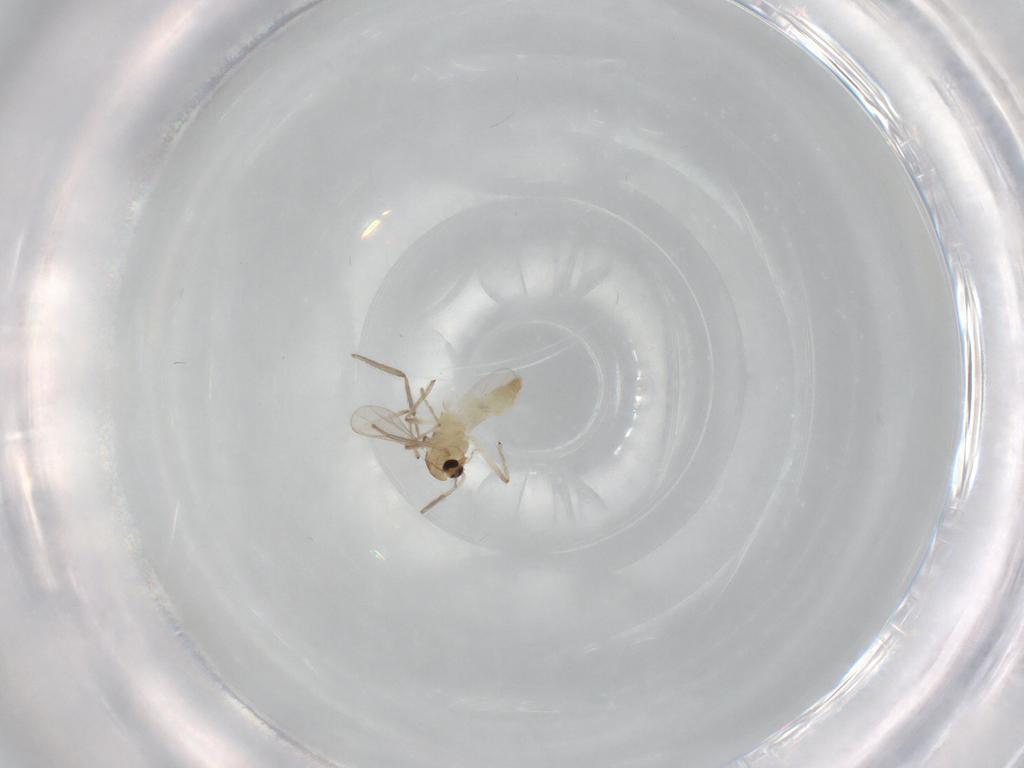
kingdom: Animalia
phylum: Arthropoda
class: Insecta
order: Diptera
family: Chironomidae
